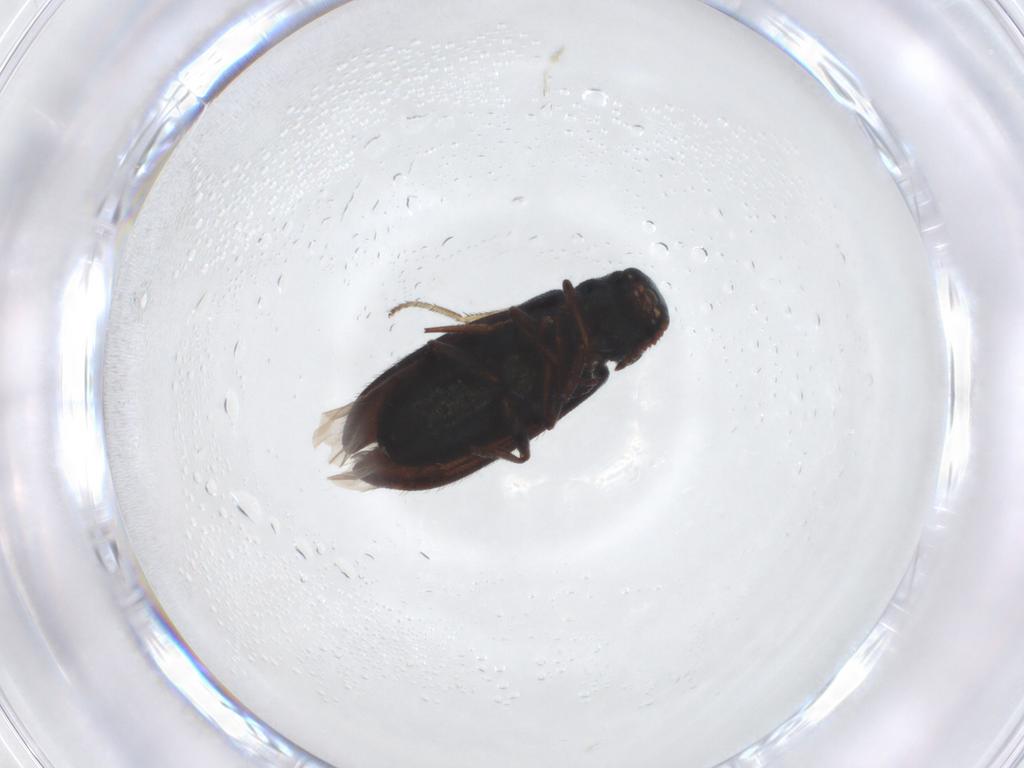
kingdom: Animalia
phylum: Arthropoda
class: Insecta
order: Coleoptera
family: Melyridae
